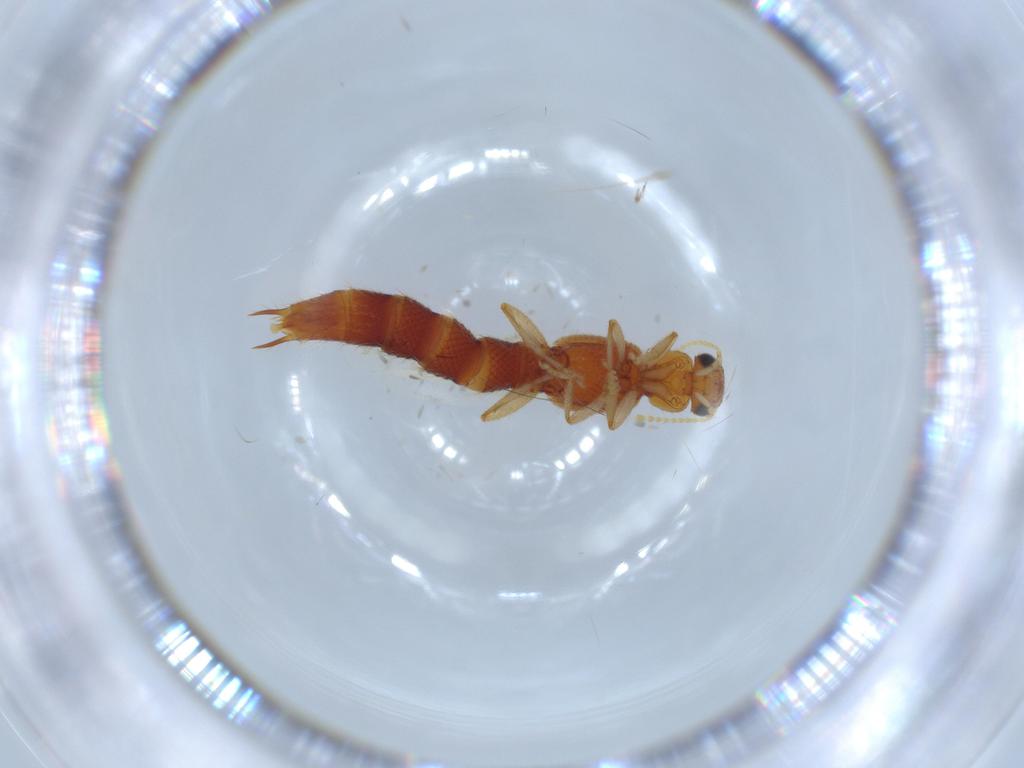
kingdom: Animalia
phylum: Arthropoda
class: Insecta
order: Coleoptera
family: Staphylinidae
